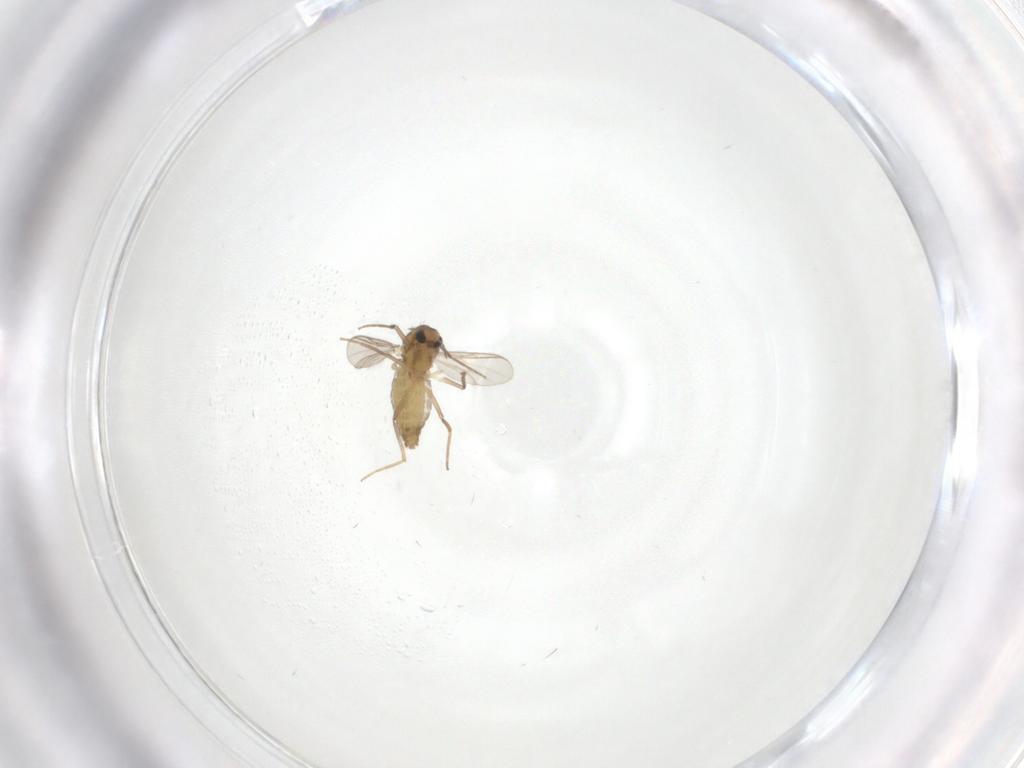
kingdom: Animalia
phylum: Arthropoda
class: Insecta
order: Diptera
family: Chironomidae
